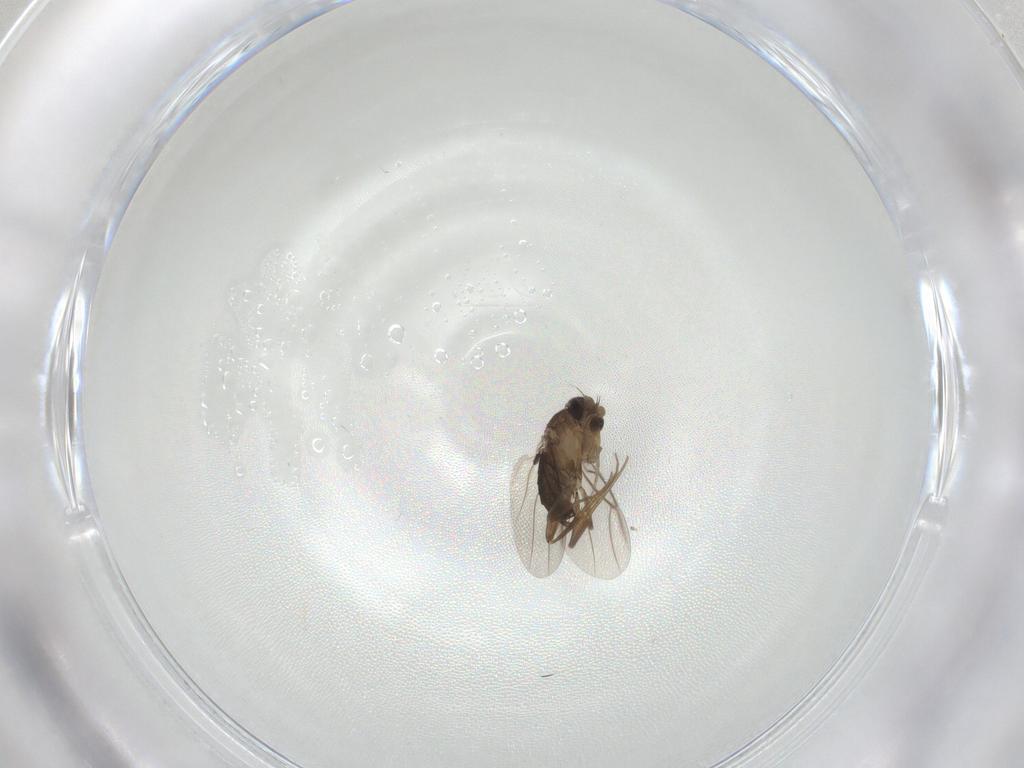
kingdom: Animalia
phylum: Arthropoda
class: Insecta
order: Diptera
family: Phoridae
